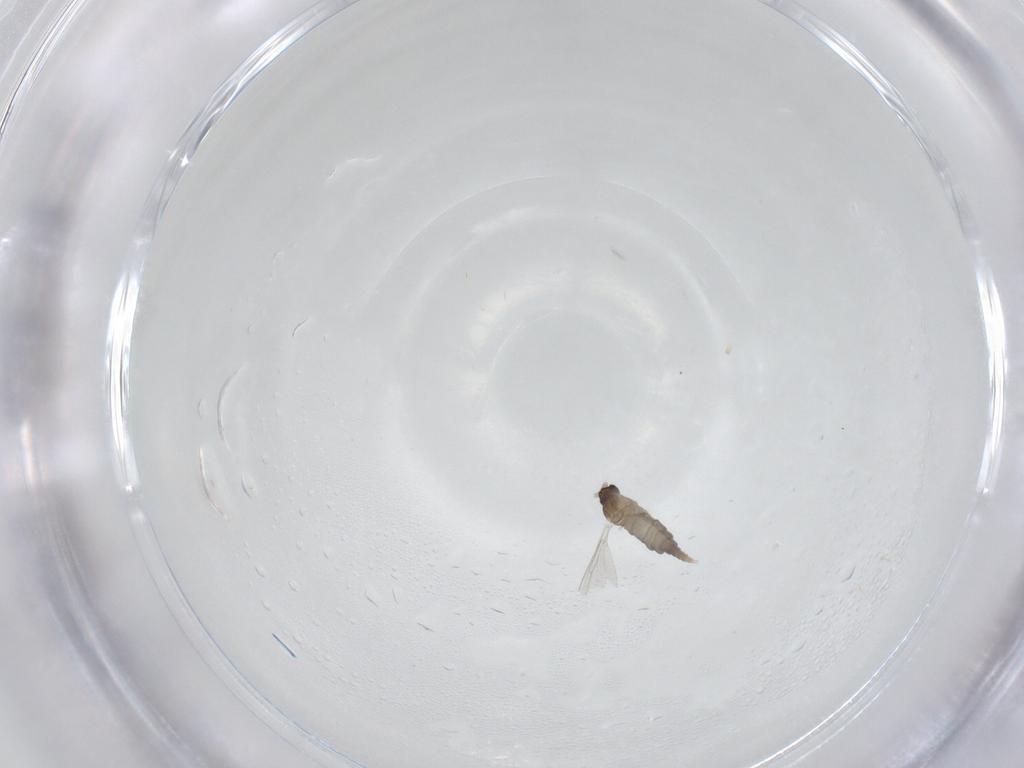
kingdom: Animalia
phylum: Arthropoda
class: Insecta
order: Diptera
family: Cecidomyiidae
